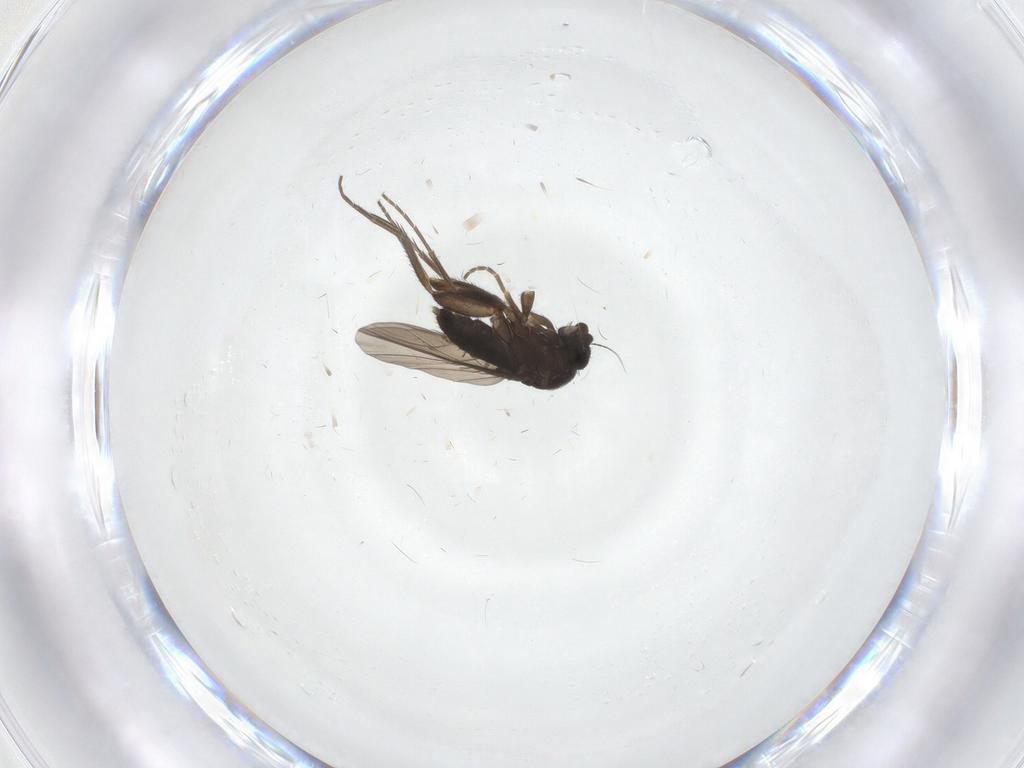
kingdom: Animalia
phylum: Arthropoda
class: Insecta
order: Diptera
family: Phoridae
